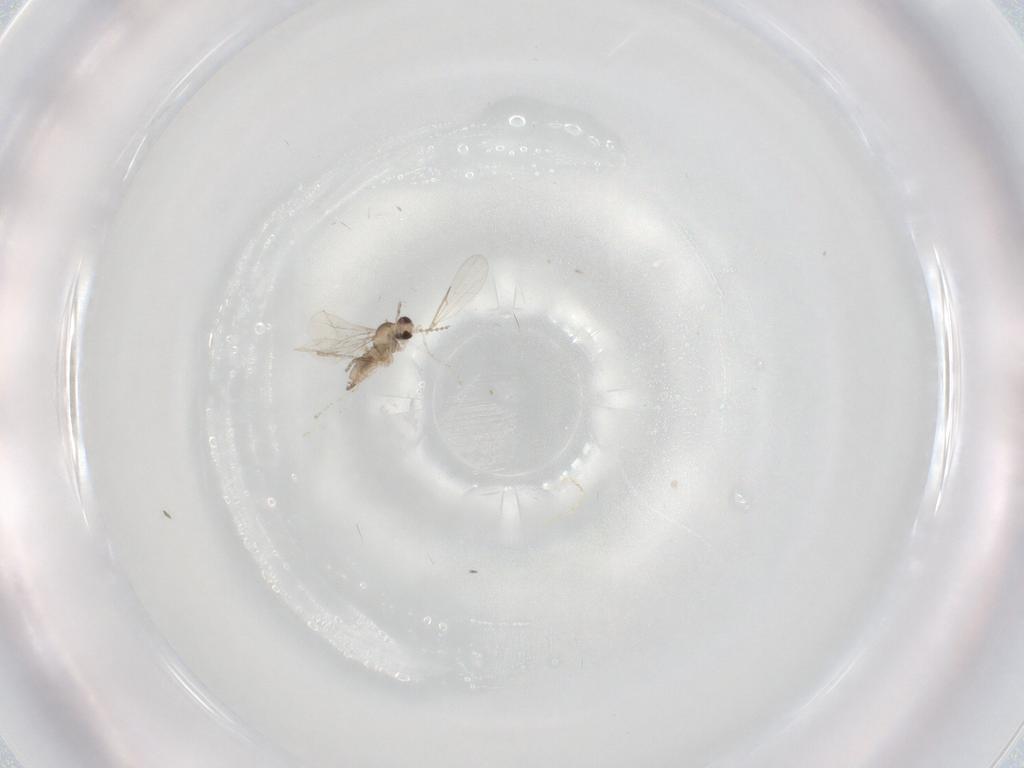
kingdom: Animalia
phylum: Arthropoda
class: Insecta
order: Diptera
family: Cecidomyiidae
